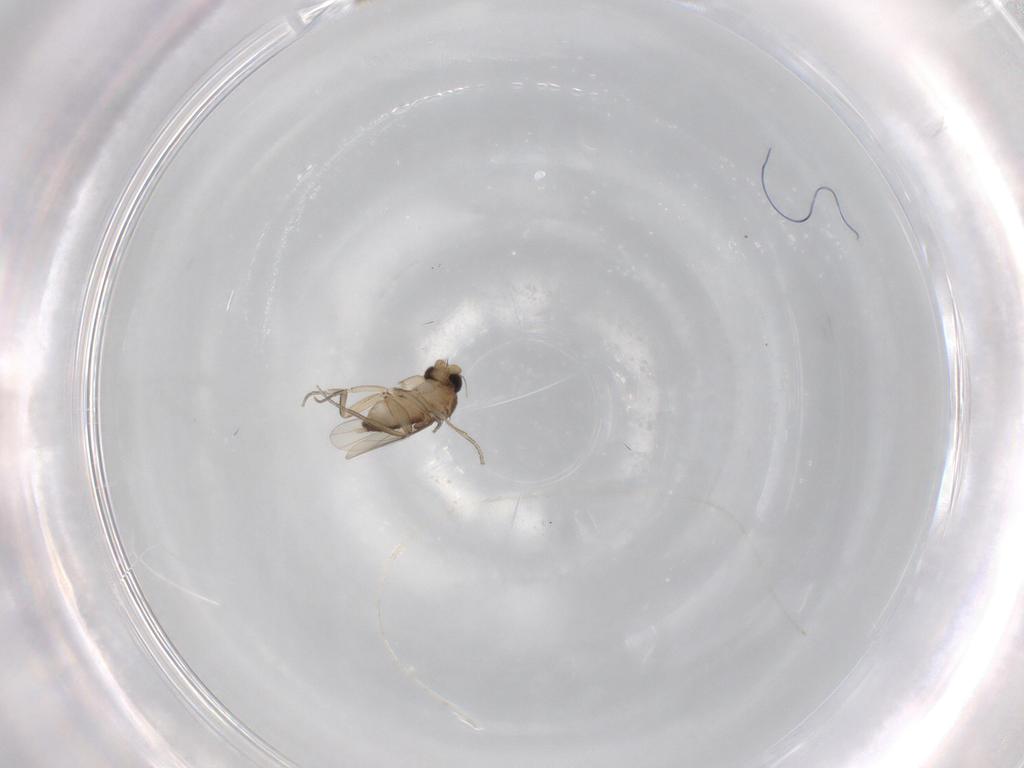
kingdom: Animalia
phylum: Arthropoda
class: Insecta
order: Diptera
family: Phoridae
